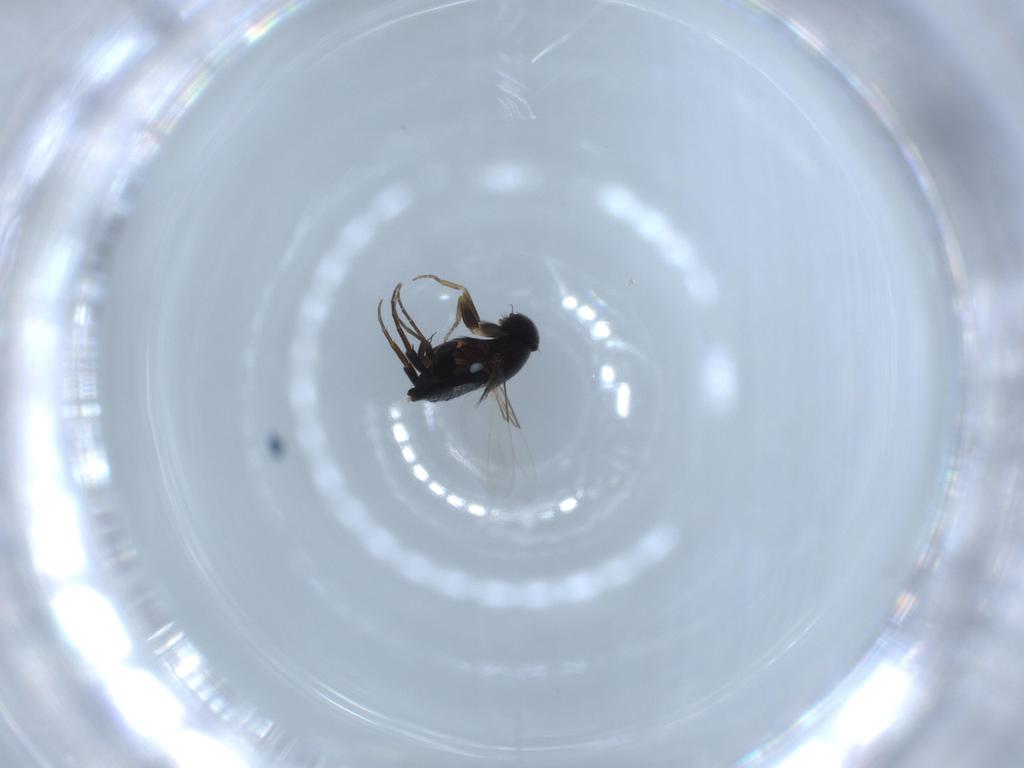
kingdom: Animalia
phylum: Arthropoda
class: Insecta
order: Diptera
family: Phoridae
